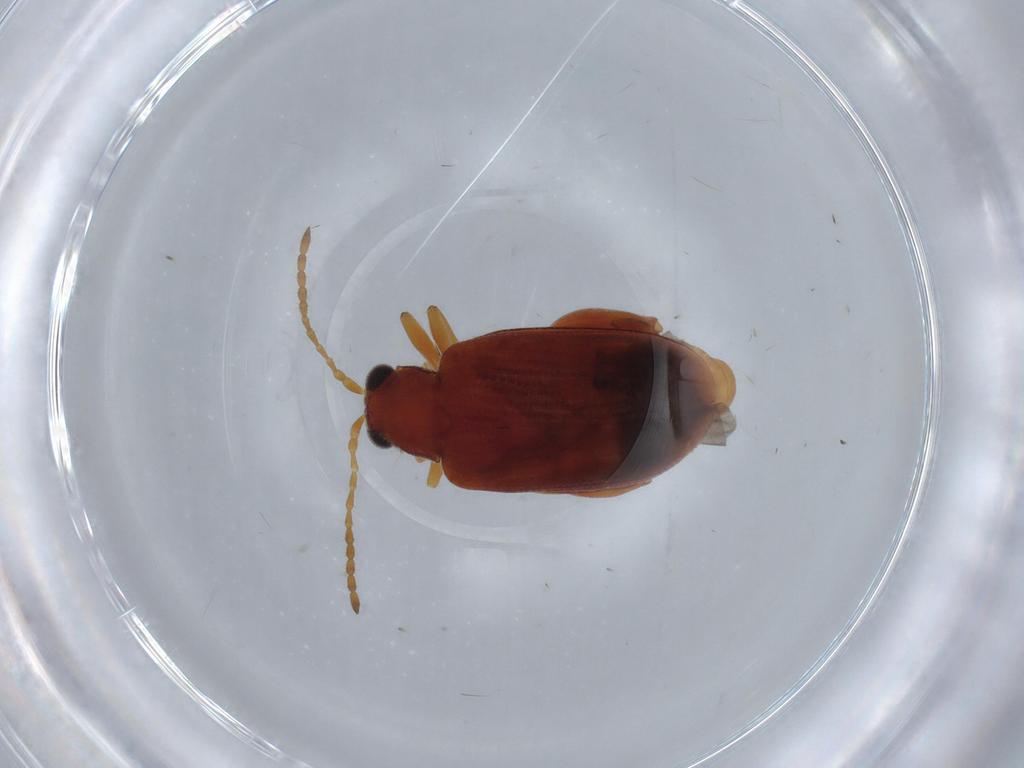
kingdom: Animalia
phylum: Arthropoda
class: Insecta
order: Coleoptera
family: Chrysomelidae
